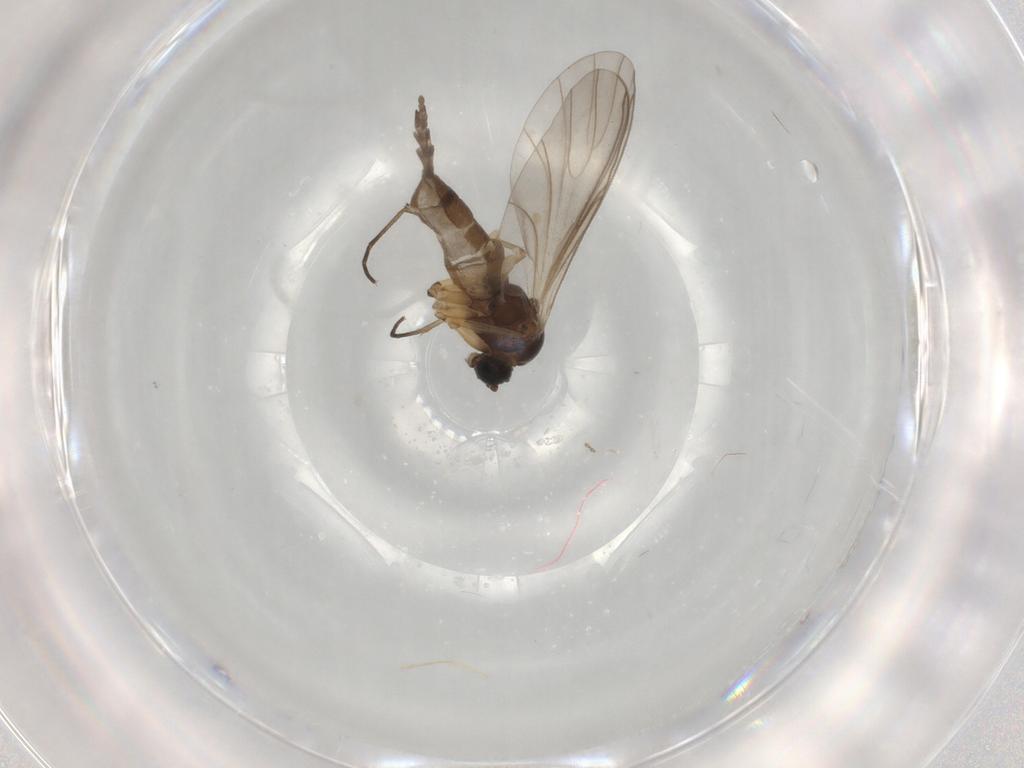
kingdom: Animalia
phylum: Arthropoda
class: Insecta
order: Diptera
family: Sciaridae
